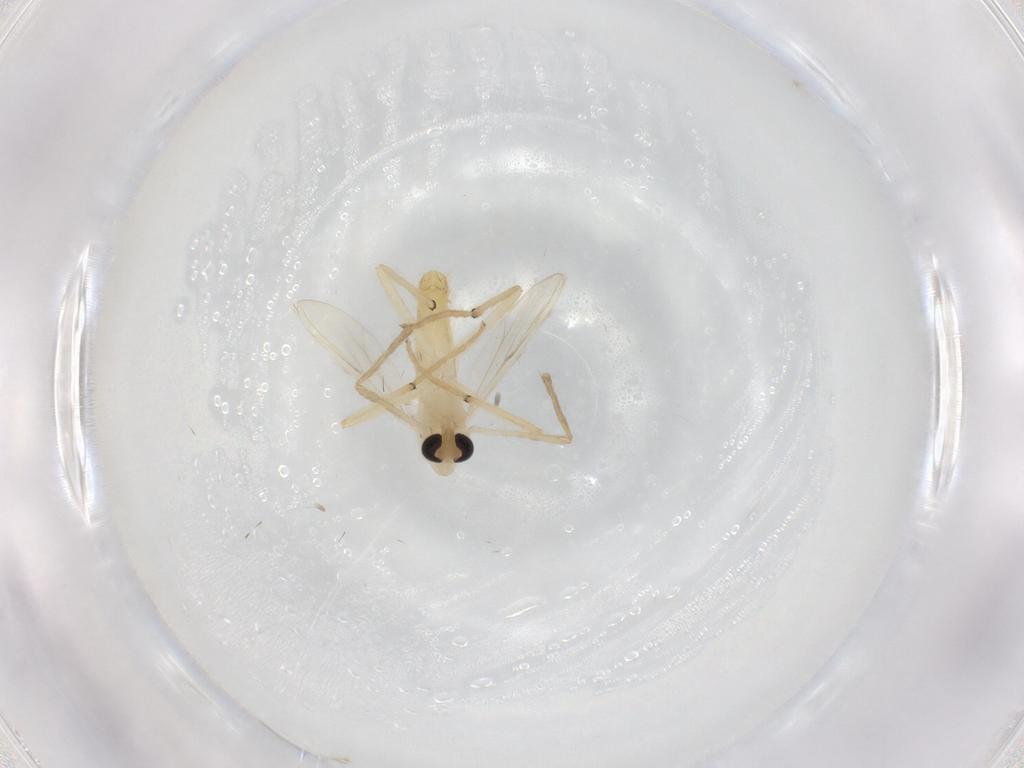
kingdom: Animalia
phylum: Arthropoda
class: Insecta
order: Diptera
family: Chironomidae
